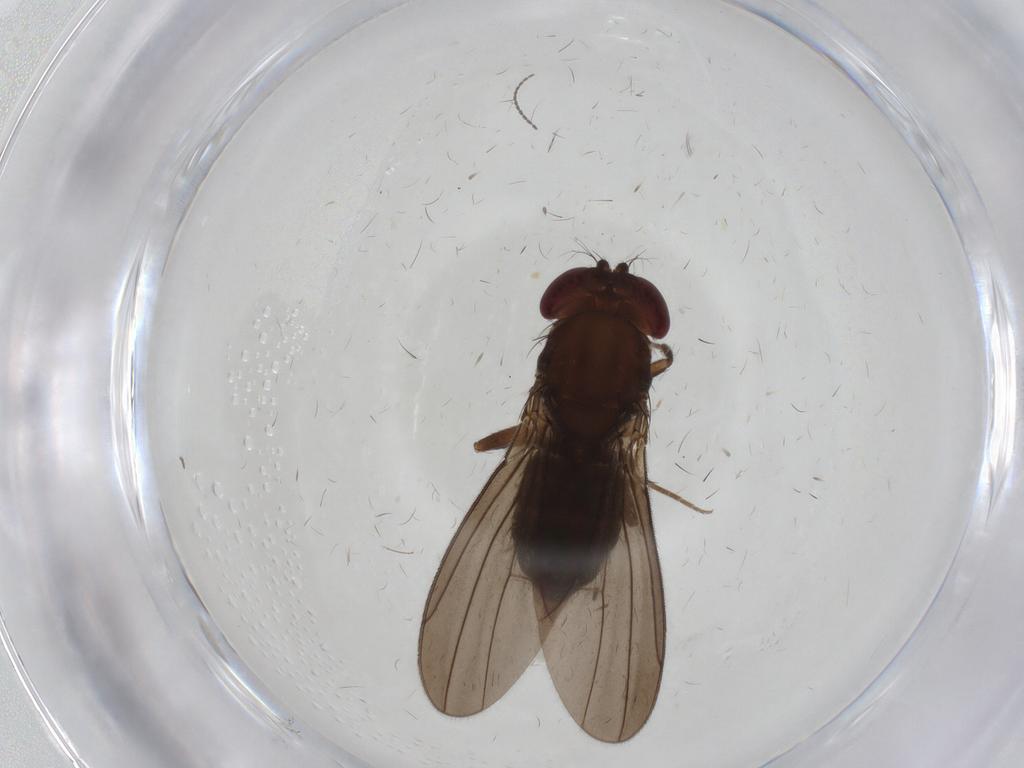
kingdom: Animalia
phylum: Arthropoda
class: Insecta
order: Diptera
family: Drosophilidae
